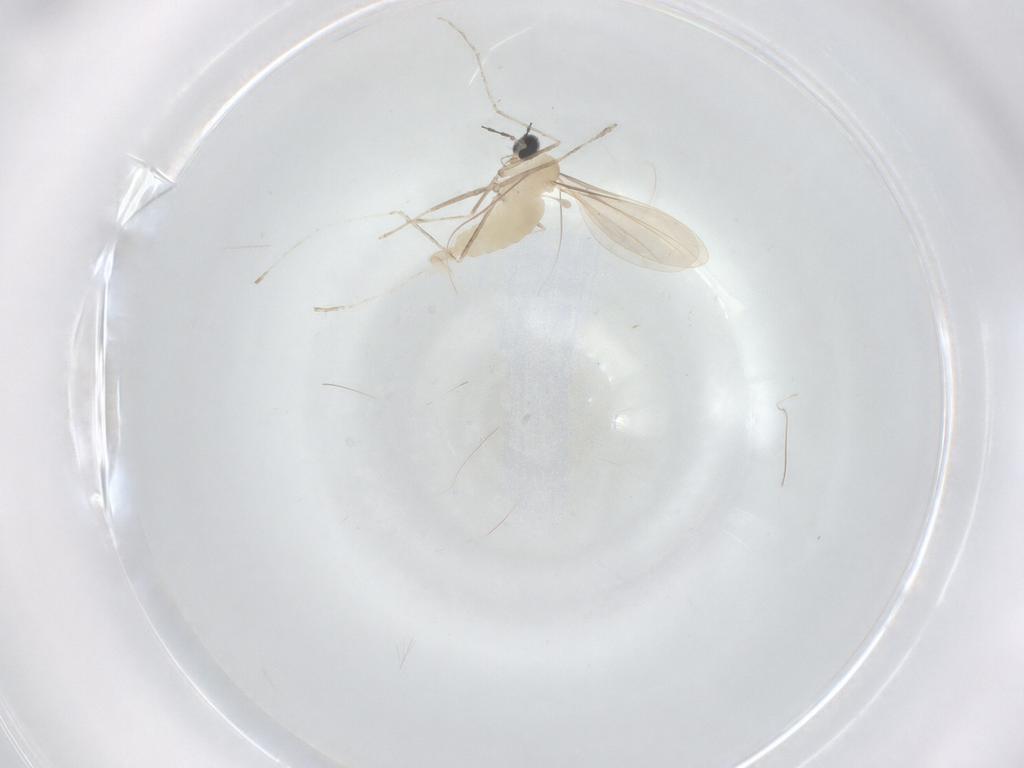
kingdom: Animalia
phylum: Arthropoda
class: Insecta
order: Diptera
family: Cecidomyiidae
